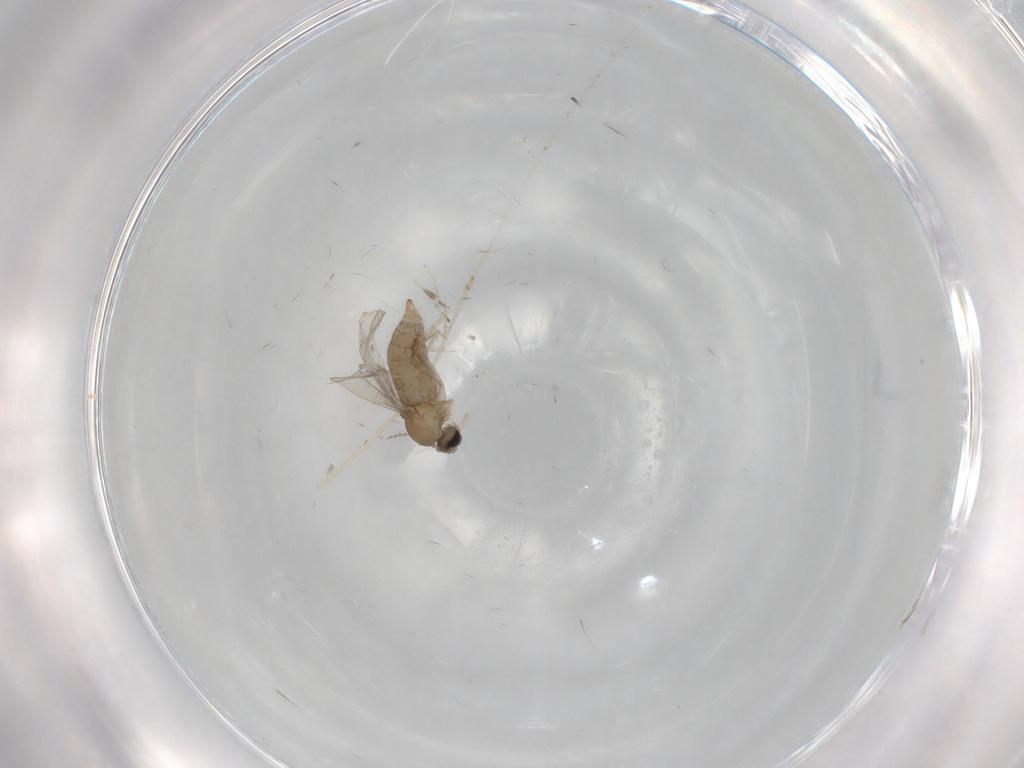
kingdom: Animalia
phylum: Arthropoda
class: Insecta
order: Diptera
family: Cecidomyiidae
